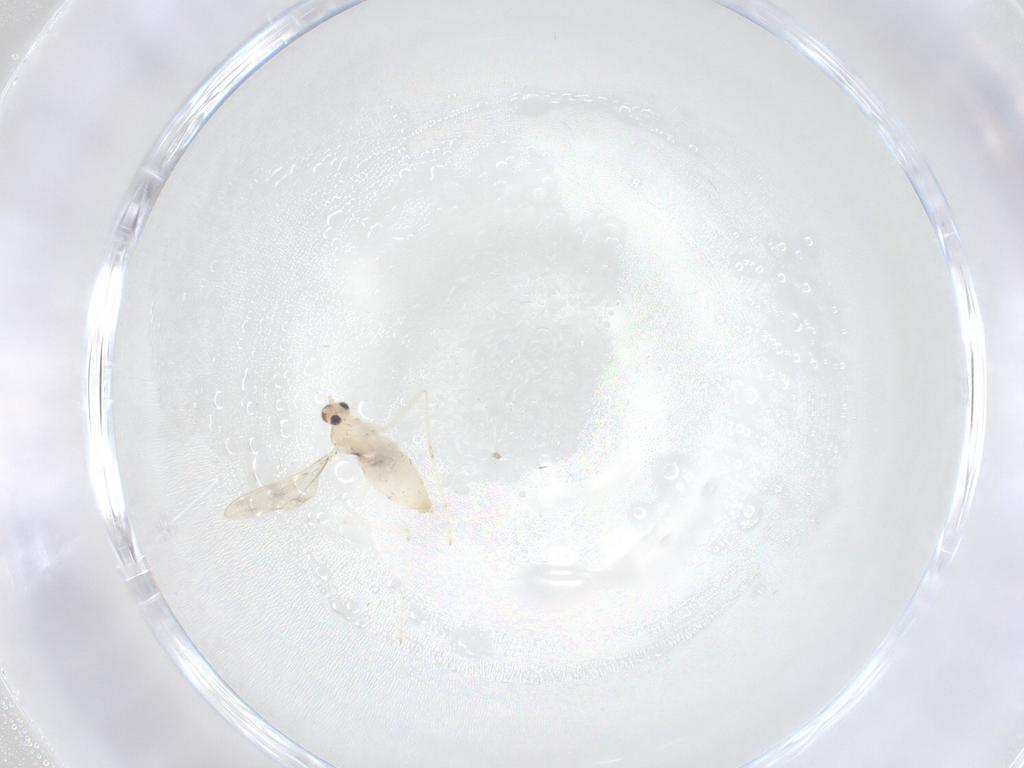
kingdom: Animalia
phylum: Arthropoda
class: Insecta
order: Diptera
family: Cecidomyiidae
